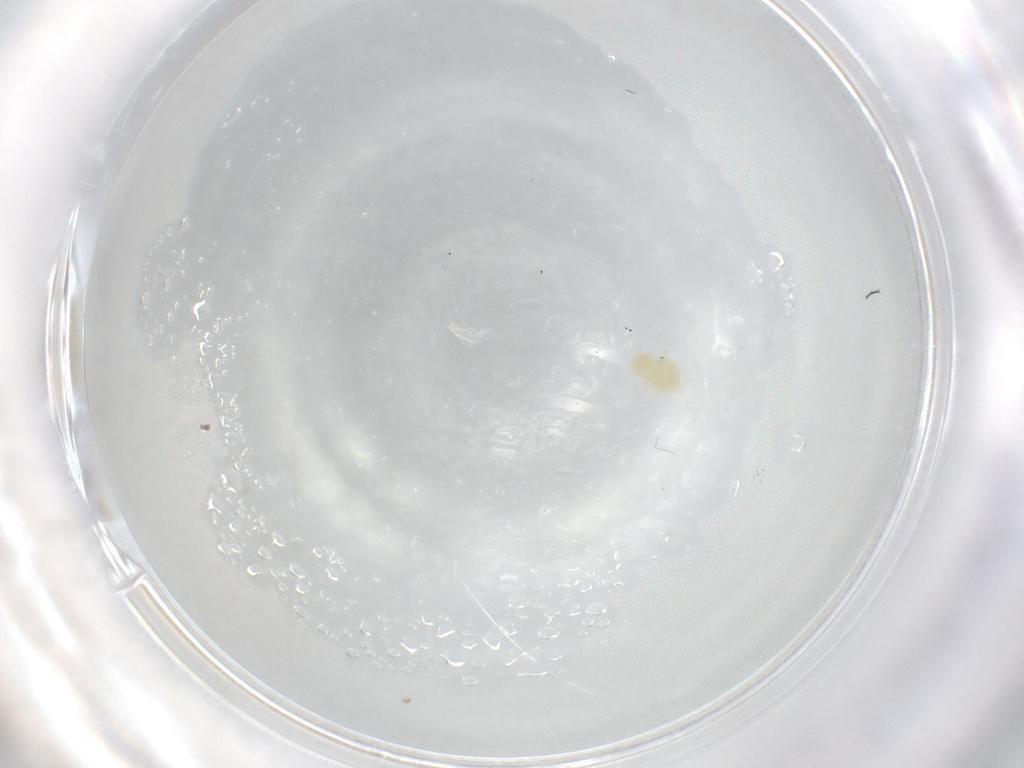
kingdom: Animalia
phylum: Arthropoda
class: Arachnida
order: Trombidiformes
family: Eupodidae
